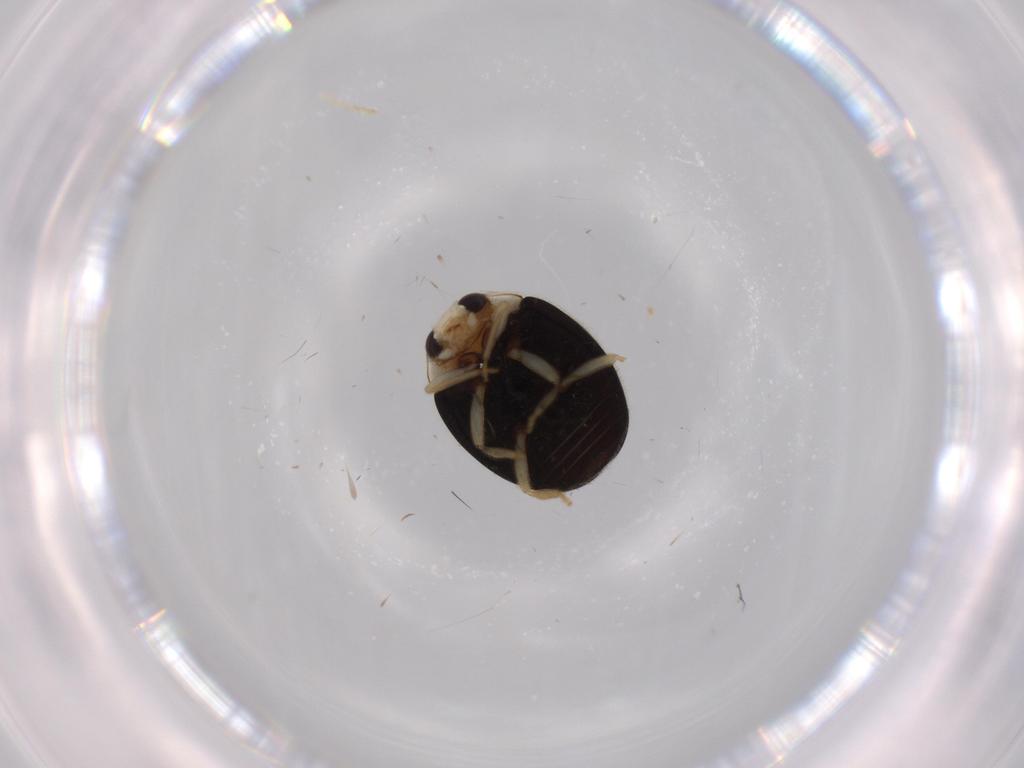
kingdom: Animalia
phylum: Arthropoda
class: Insecta
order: Coleoptera
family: Coccinellidae
